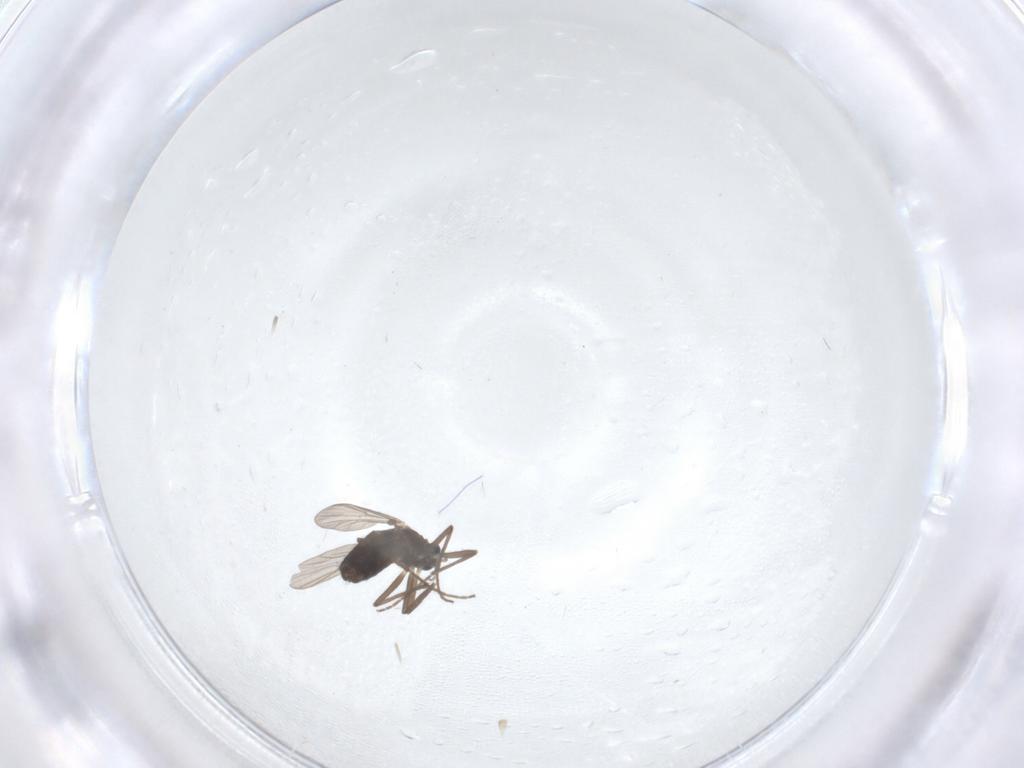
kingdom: Animalia
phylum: Arthropoda
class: Insecta
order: Diptera
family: Chironomidae
